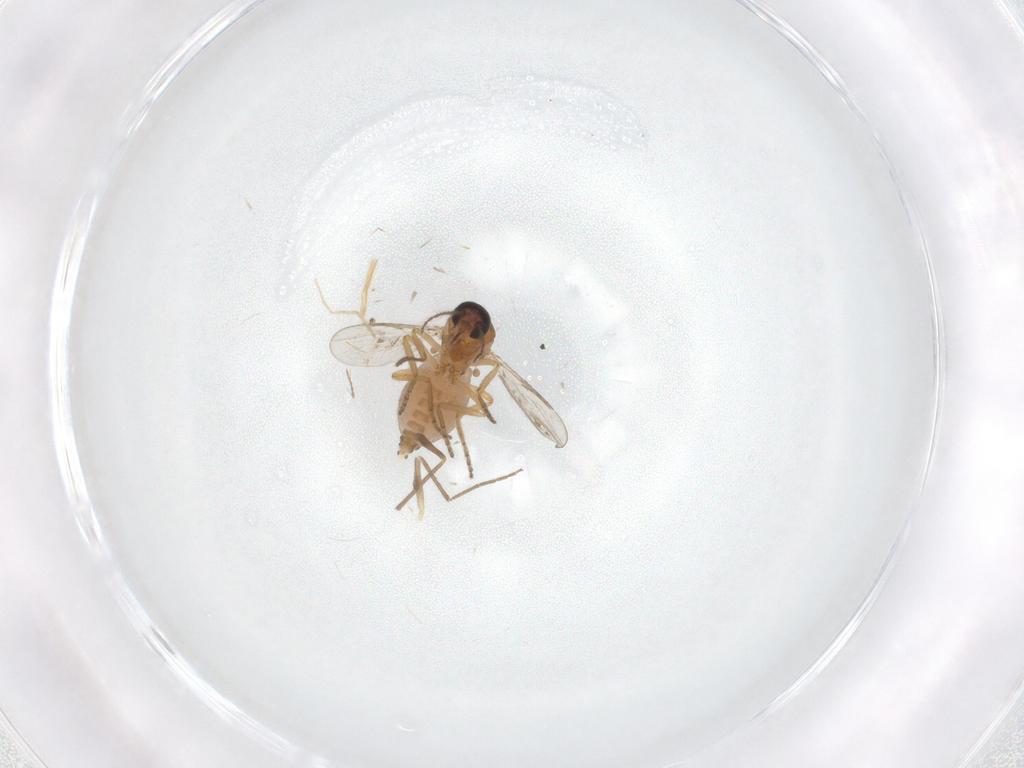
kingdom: Animalia
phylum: Arthropoda
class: Insecta
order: Diptera
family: Ceratopogonidae
